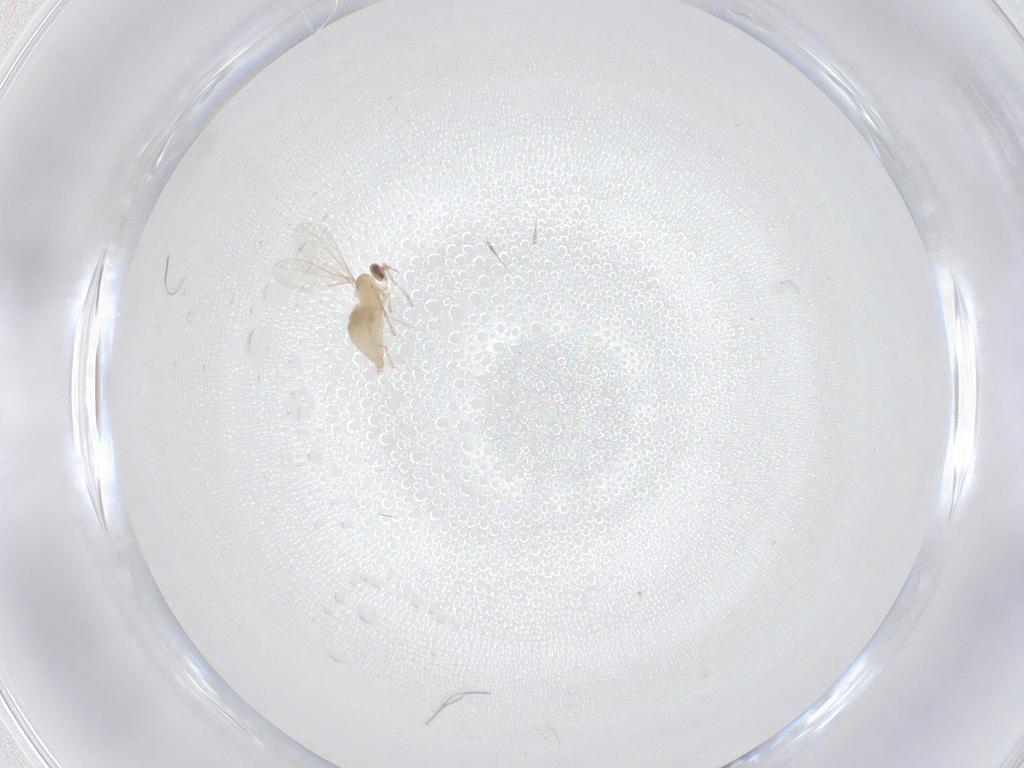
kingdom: Animalia
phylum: Arthropoda
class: Insecta
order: Diptera
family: Cecidomyiidae
